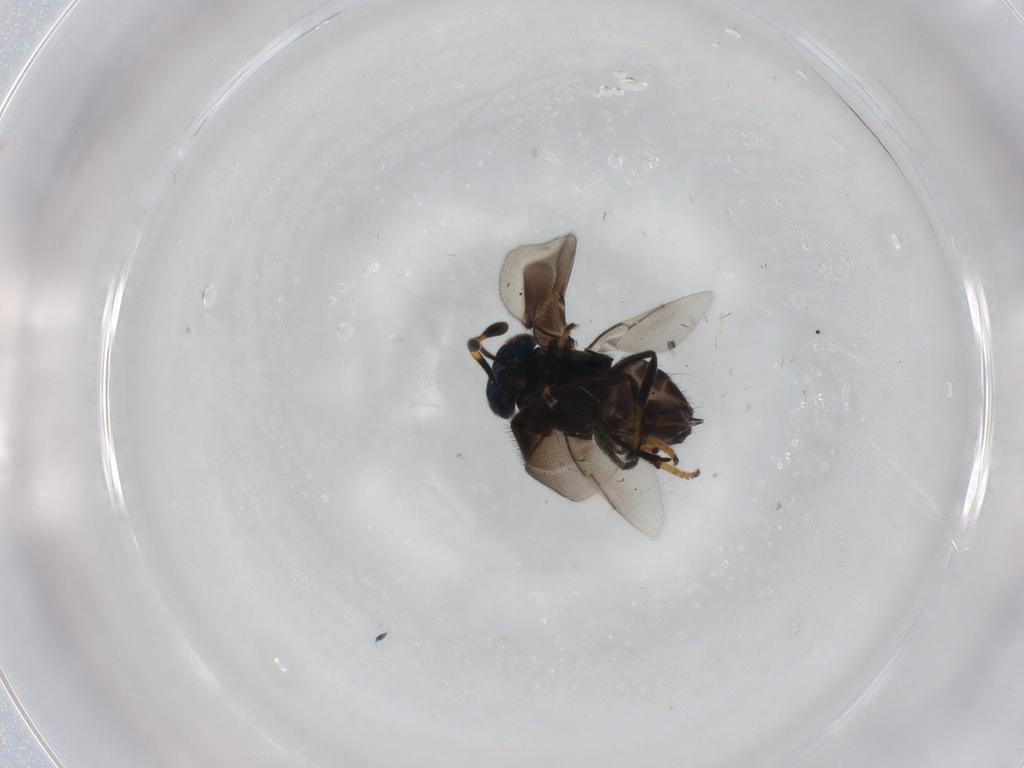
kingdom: Animalia
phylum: Arthropoda
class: Insecta
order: Hymenoptera
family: Encyrtidae
